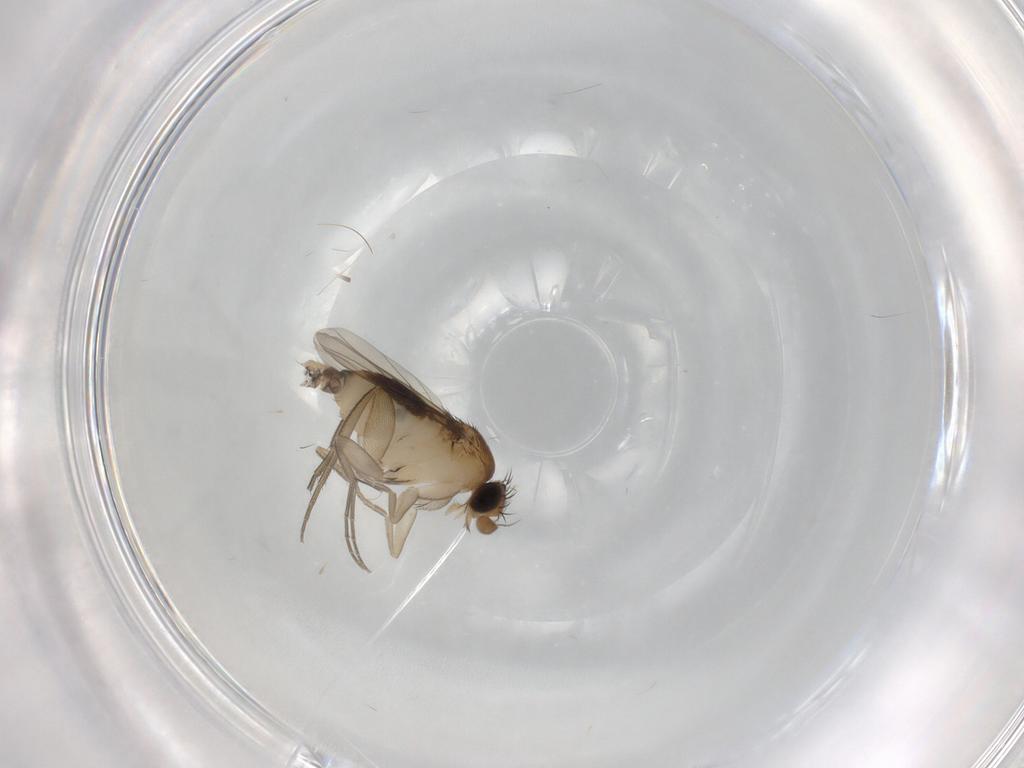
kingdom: Animalia
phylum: Arthropoda
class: Insecta
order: Diptera
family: Phoridae
